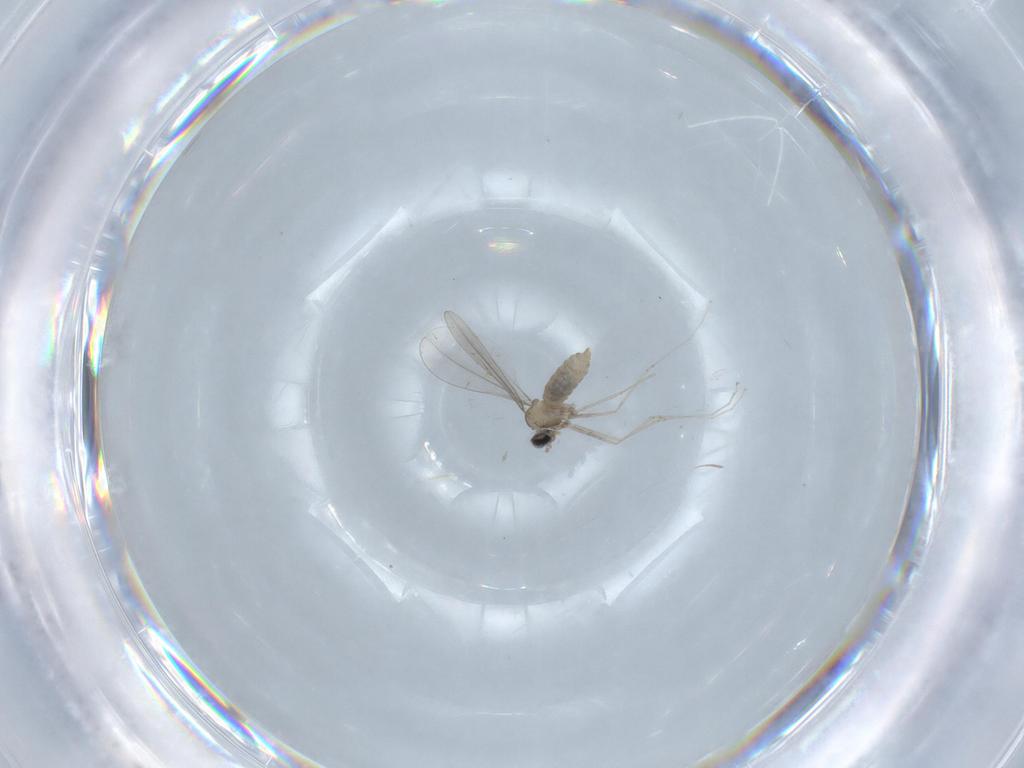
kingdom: Animalia
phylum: Arthropoda
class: Insecta
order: Diptera
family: Cecidomyiidae
